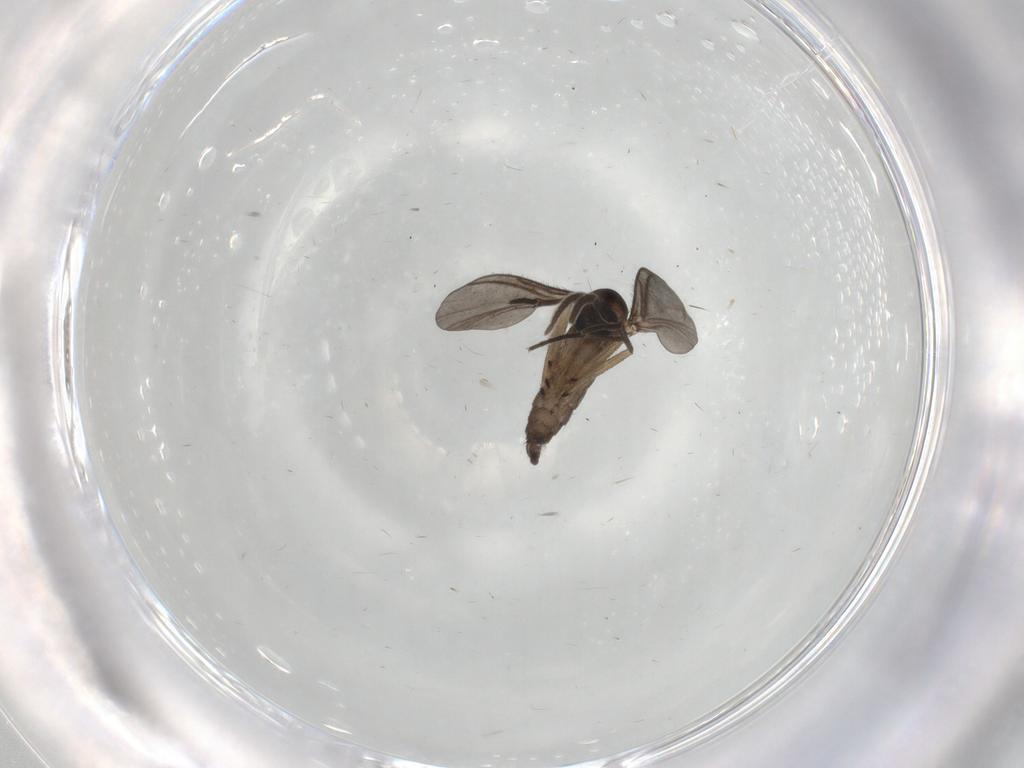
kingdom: Animalia
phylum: Arthropoda
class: Insecta
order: Diptera
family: Sciaridae
